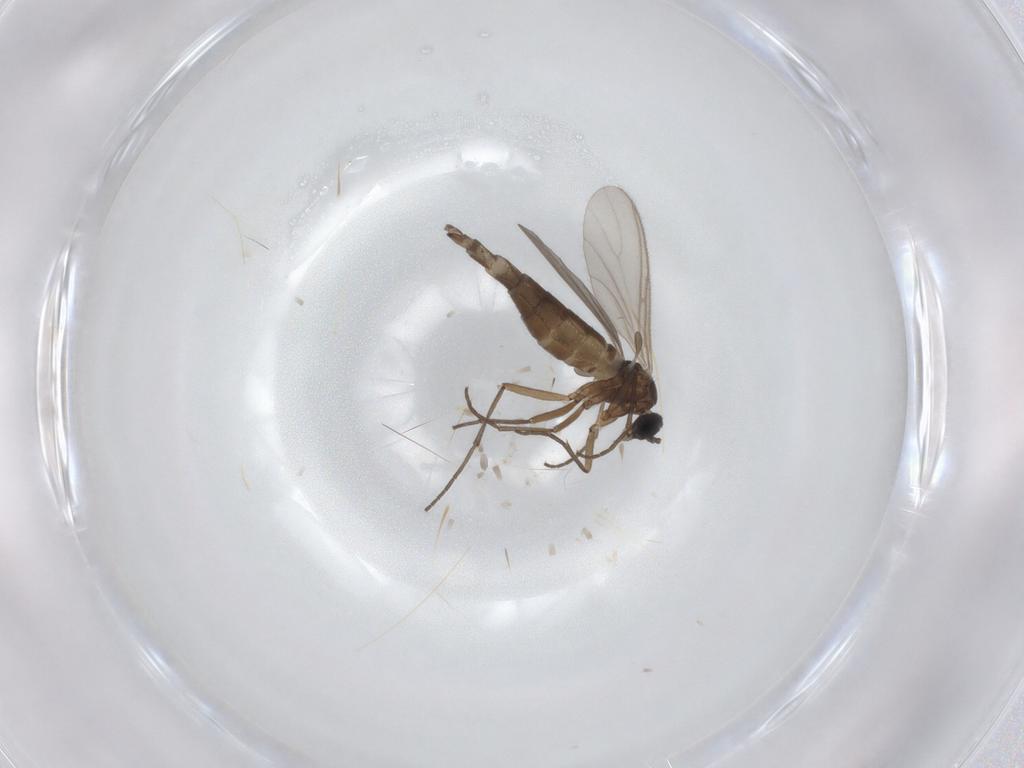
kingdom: Animalia
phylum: Arthropoda
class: Insecta
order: Diptera
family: Sciaridae
